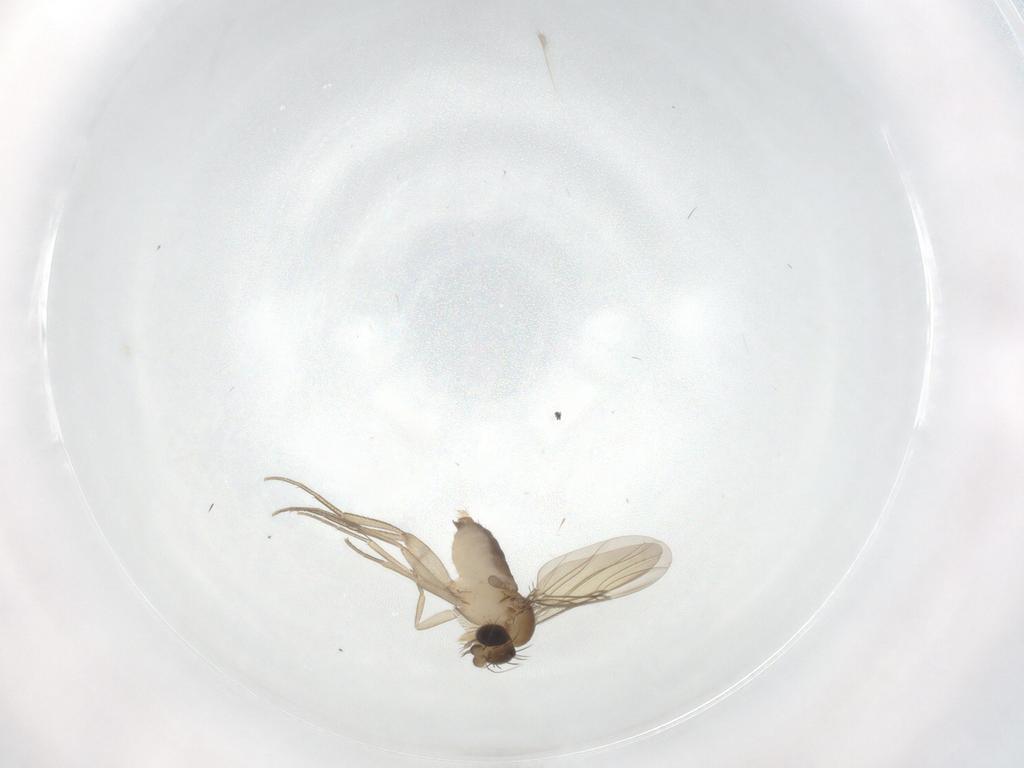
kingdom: Animalia
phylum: Arthropoda
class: Insecta
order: Diptera
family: Phoridae
